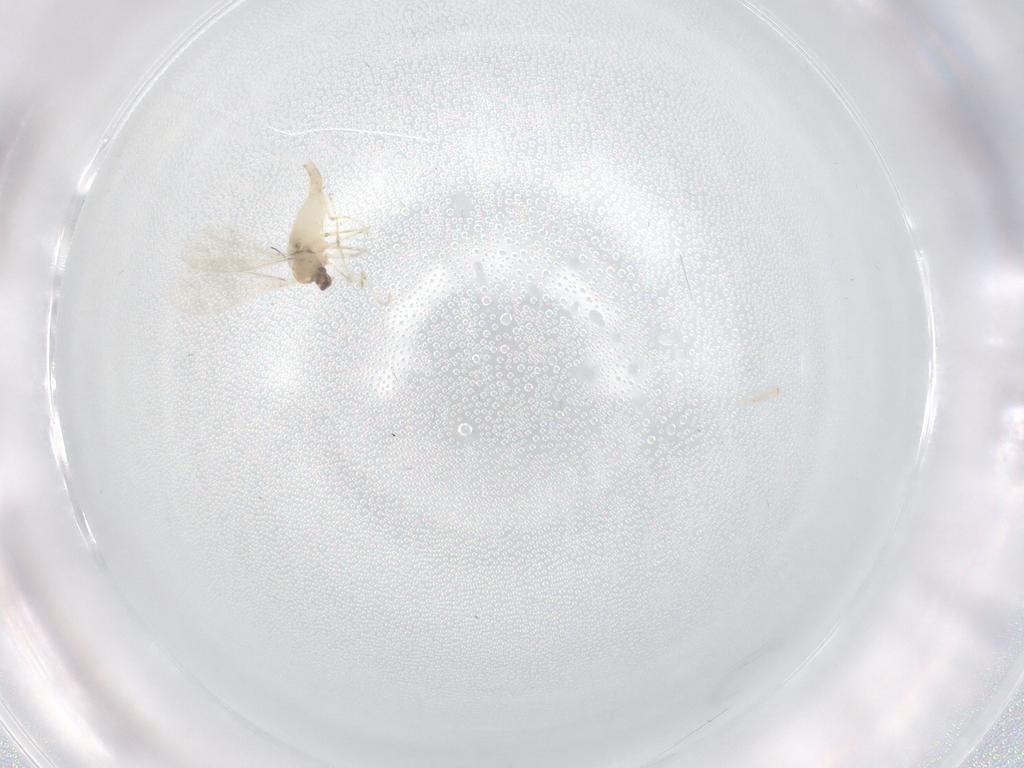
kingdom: Animalia
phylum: Arthropoda
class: Insecta
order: Diptera
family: Cecidomyiidae
